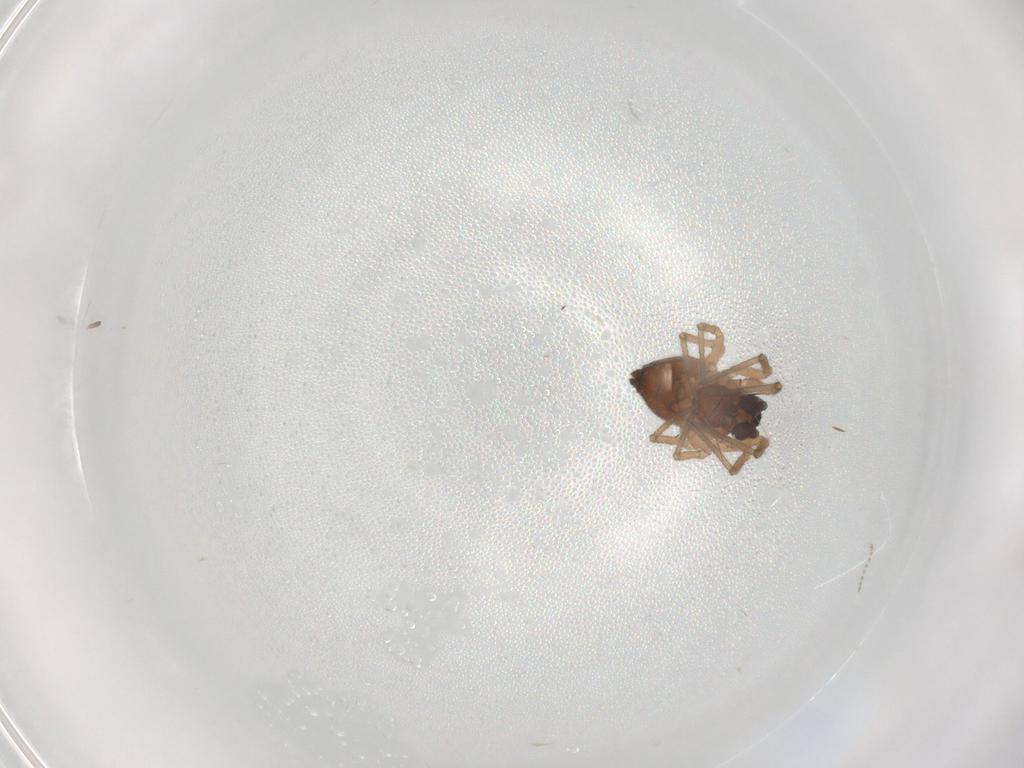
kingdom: Animalia
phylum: Arthropoda
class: Arachnida
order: Araneae
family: Linyphiidae
